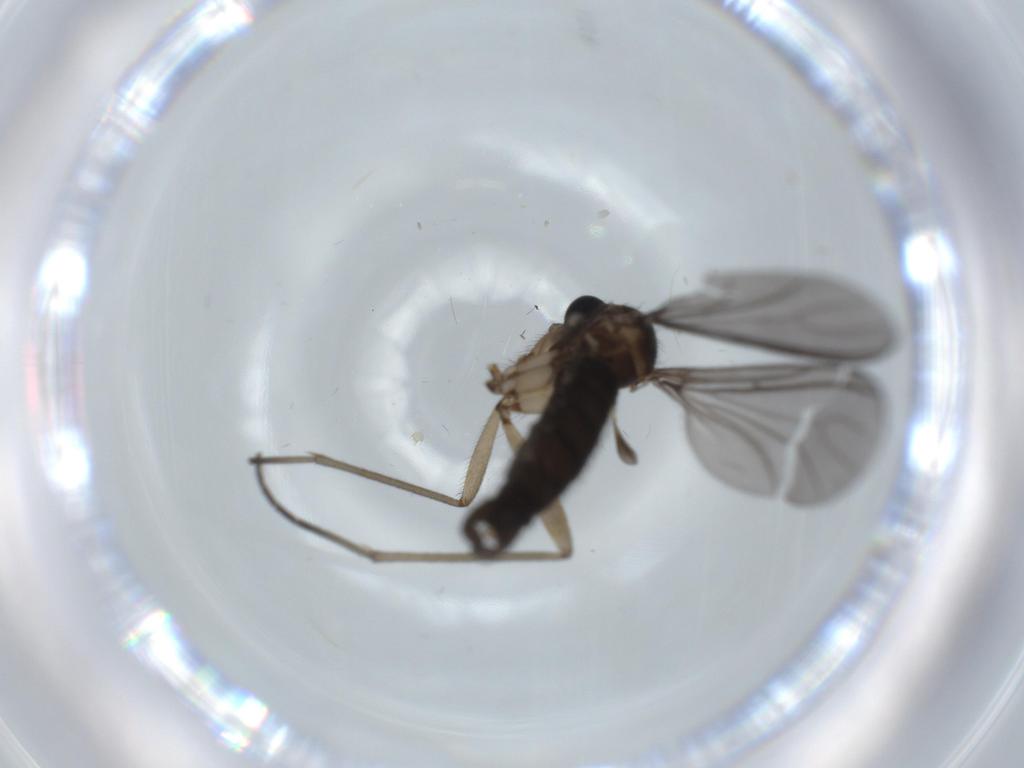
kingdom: Animalia
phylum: Arthropoda
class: Insecta
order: Diptera
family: Sciaridae
